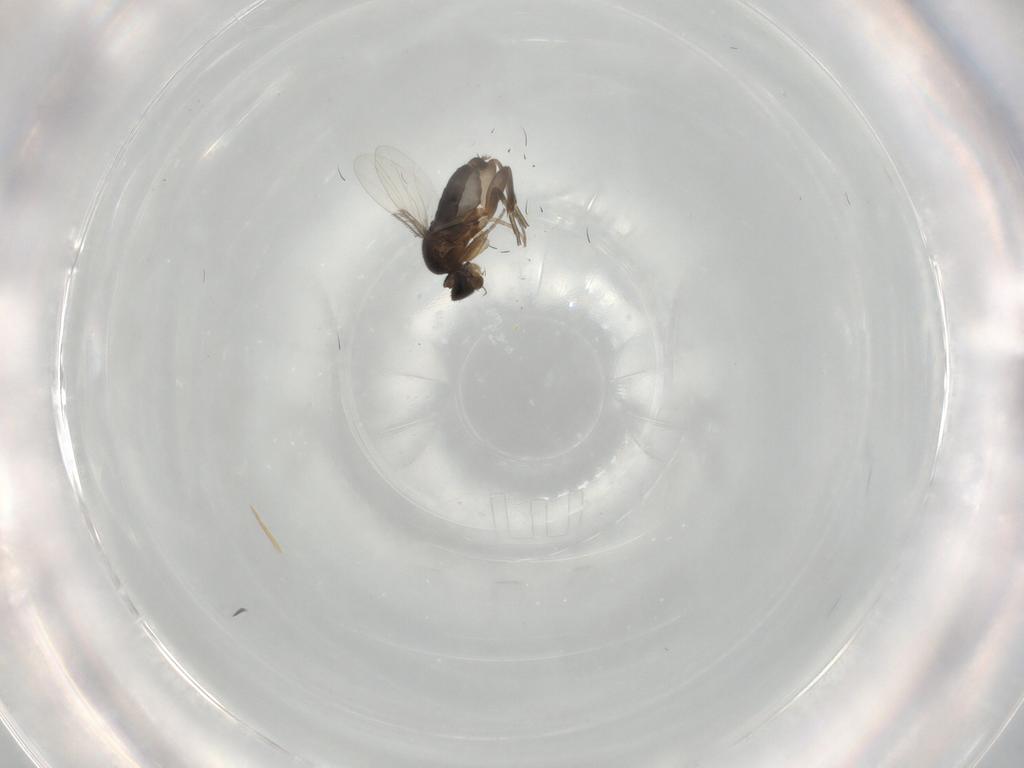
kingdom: Animalia
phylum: Arthropoda
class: Insecta
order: Diptera
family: Phoridae
